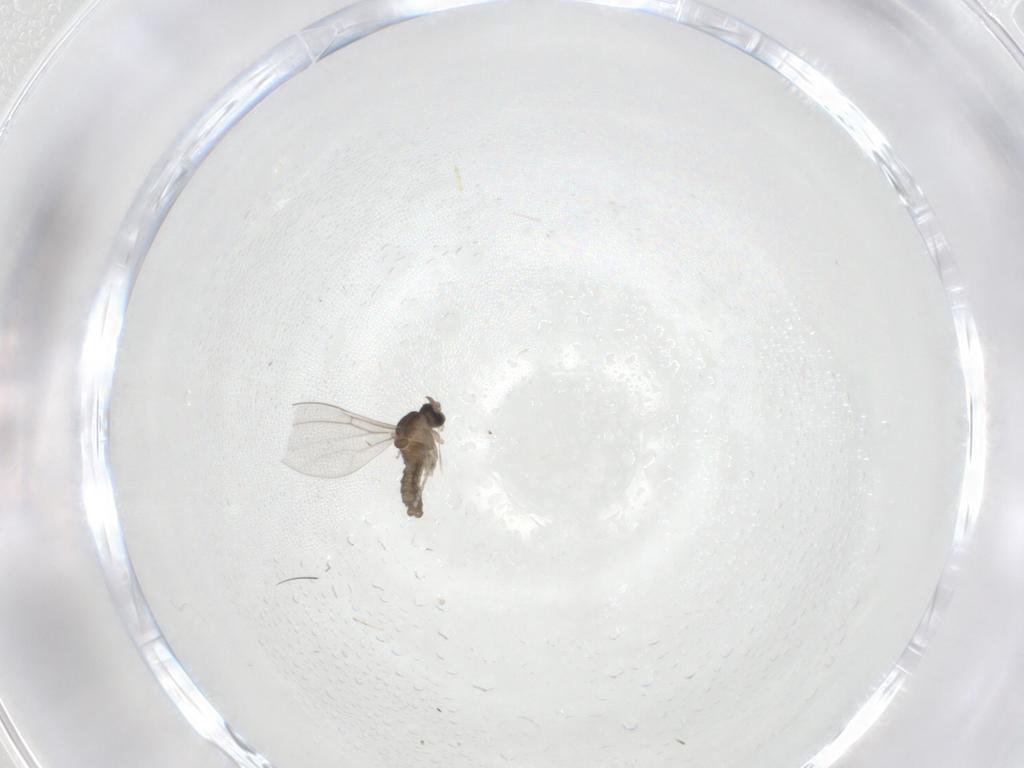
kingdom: Animalia
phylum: Arthropoda
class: Insecta
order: Diptera
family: Cecidomyiidae
